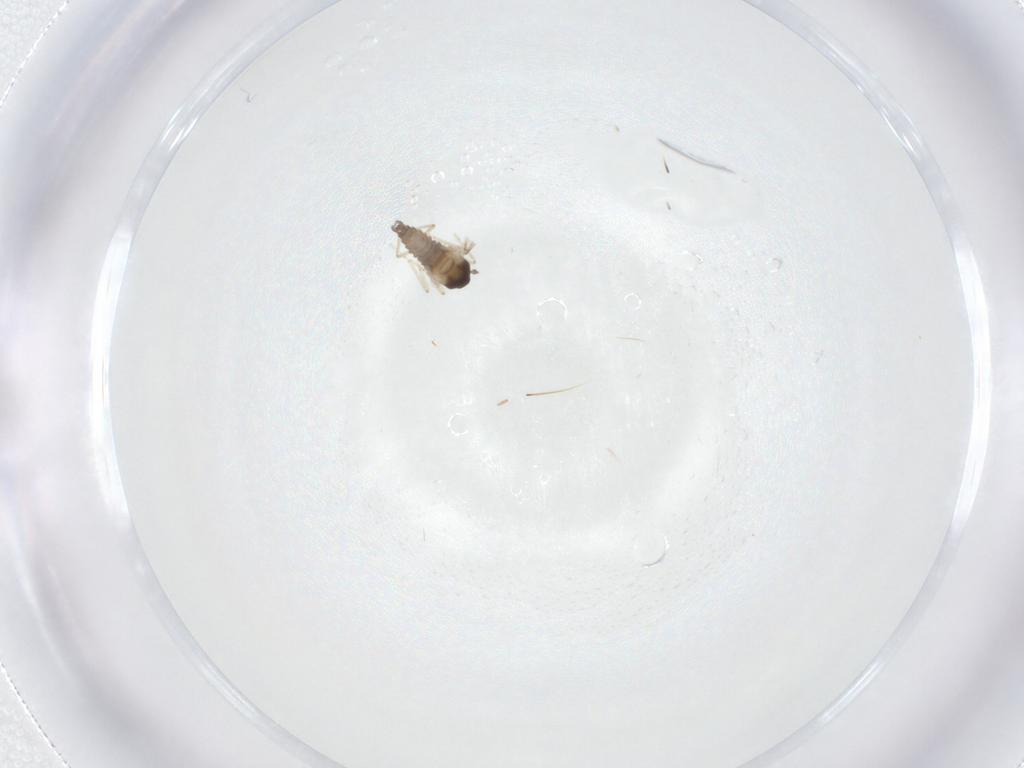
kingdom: Animalia
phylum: Arthropoda
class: Insecta
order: Diptera
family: Cecidomyiidae
